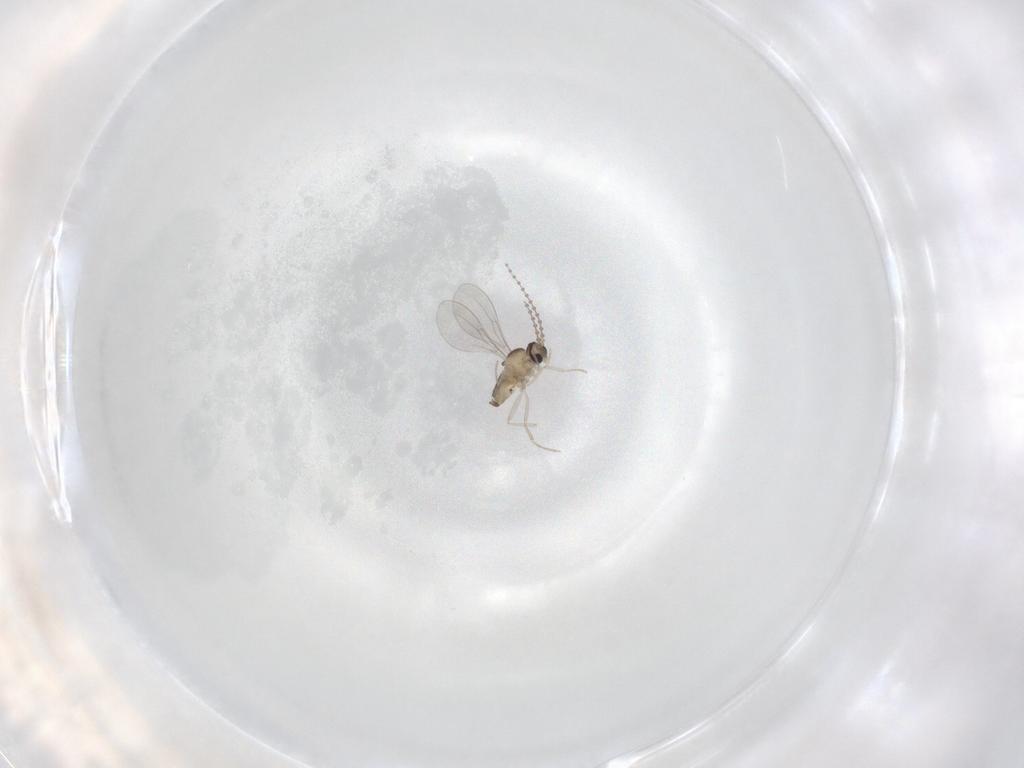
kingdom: Animalia
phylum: Arthropoda
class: Insecta
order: Diptera
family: Cecidomyiidae
